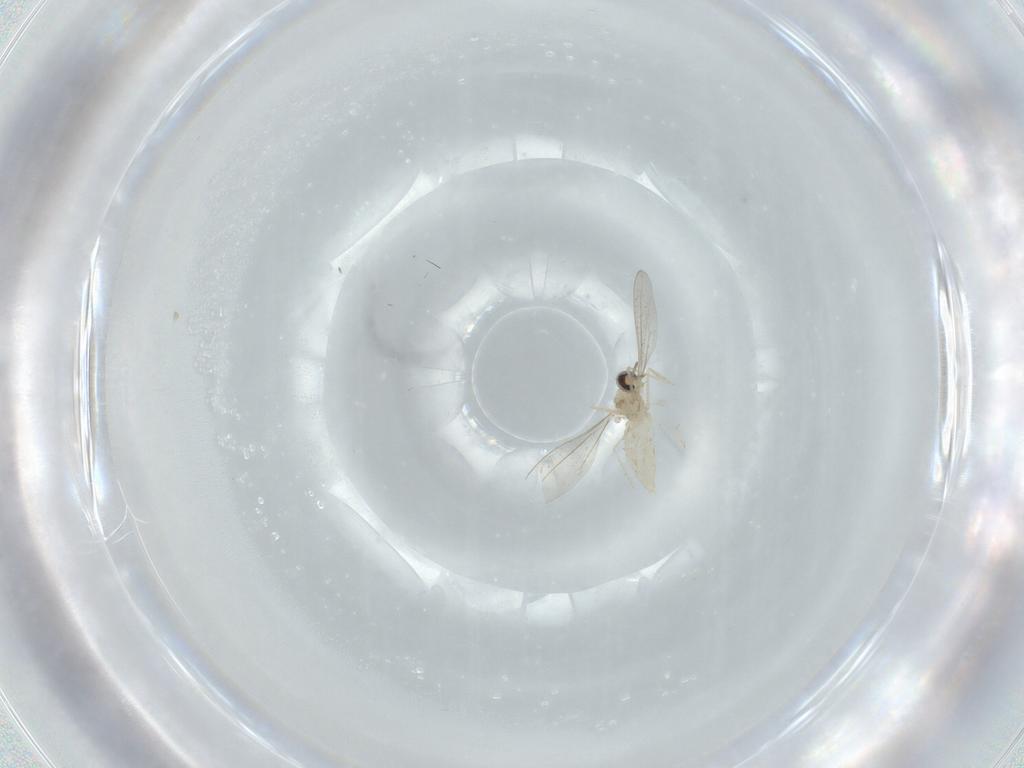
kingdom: Animalia
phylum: Arthropoda
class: Insecta
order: Diptera
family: Cecidomyiidae
